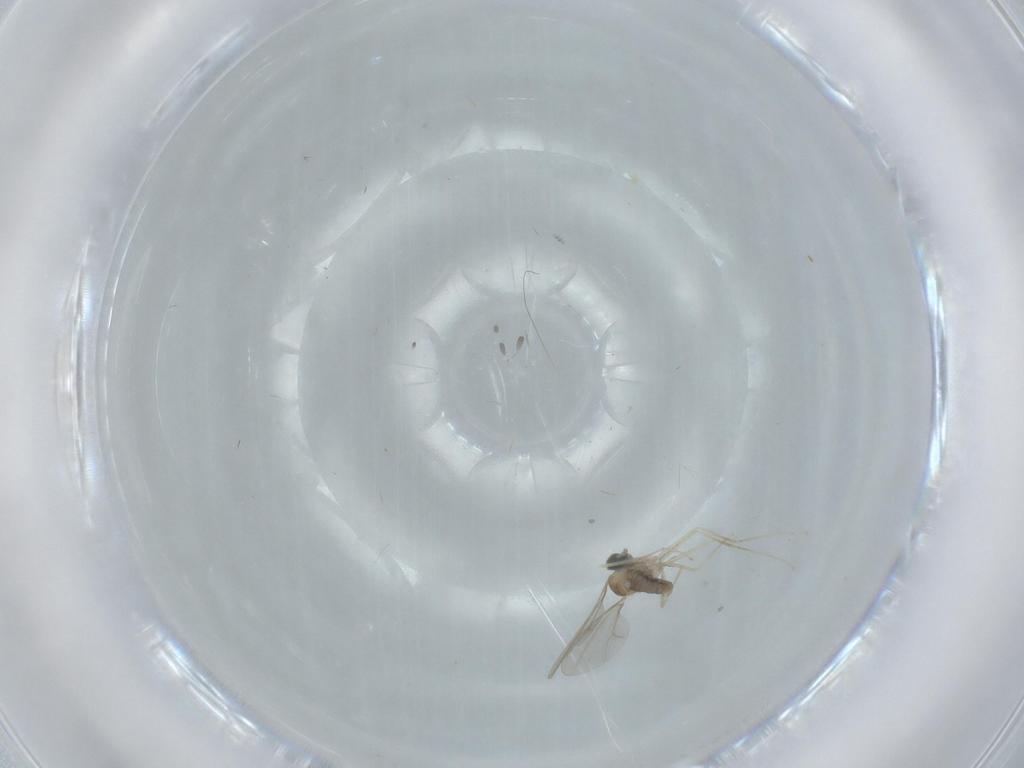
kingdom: Animalia
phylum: Arthropoda
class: Insecta
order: Diptera
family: Cecidomyiidae
